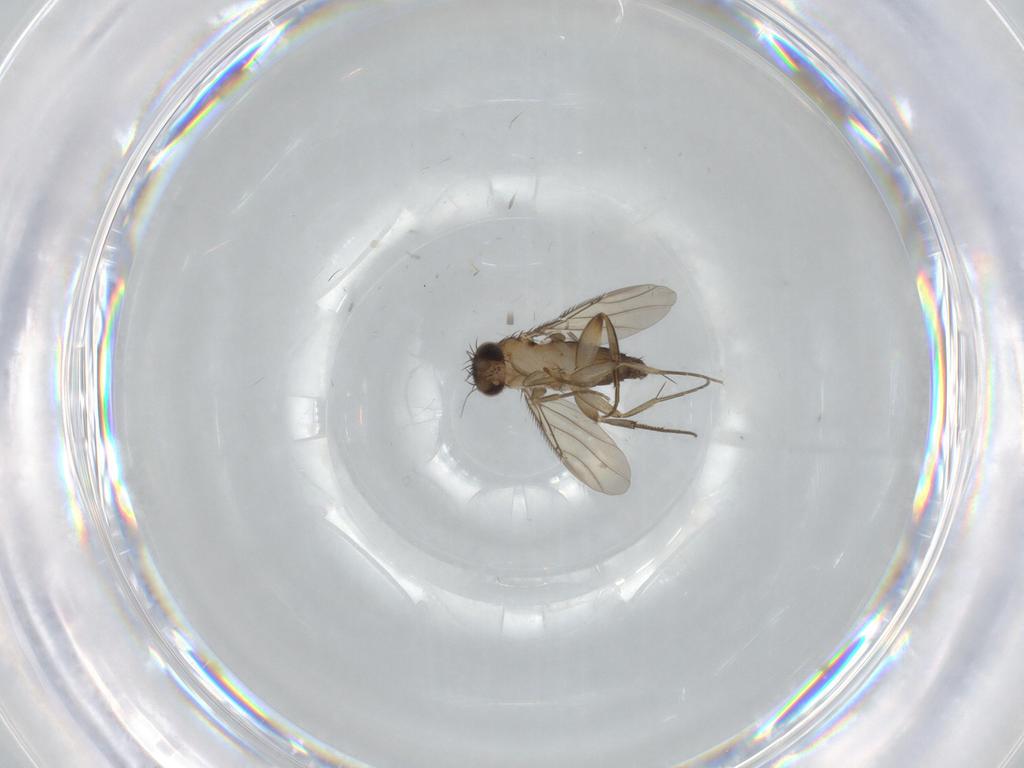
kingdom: Animalia
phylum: Arthropoda
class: Insecta
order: Diptera
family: Phoridae
